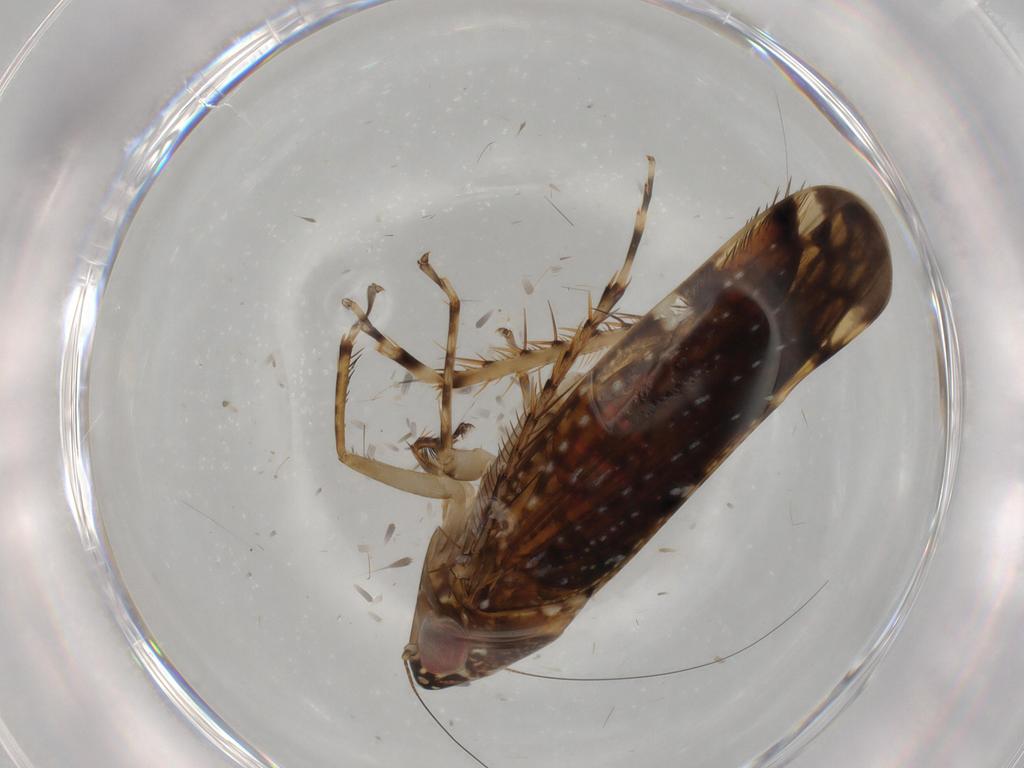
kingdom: Animalia
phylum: Arthropoda
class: Insecta
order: Hemiptera
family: Cicadellidae
